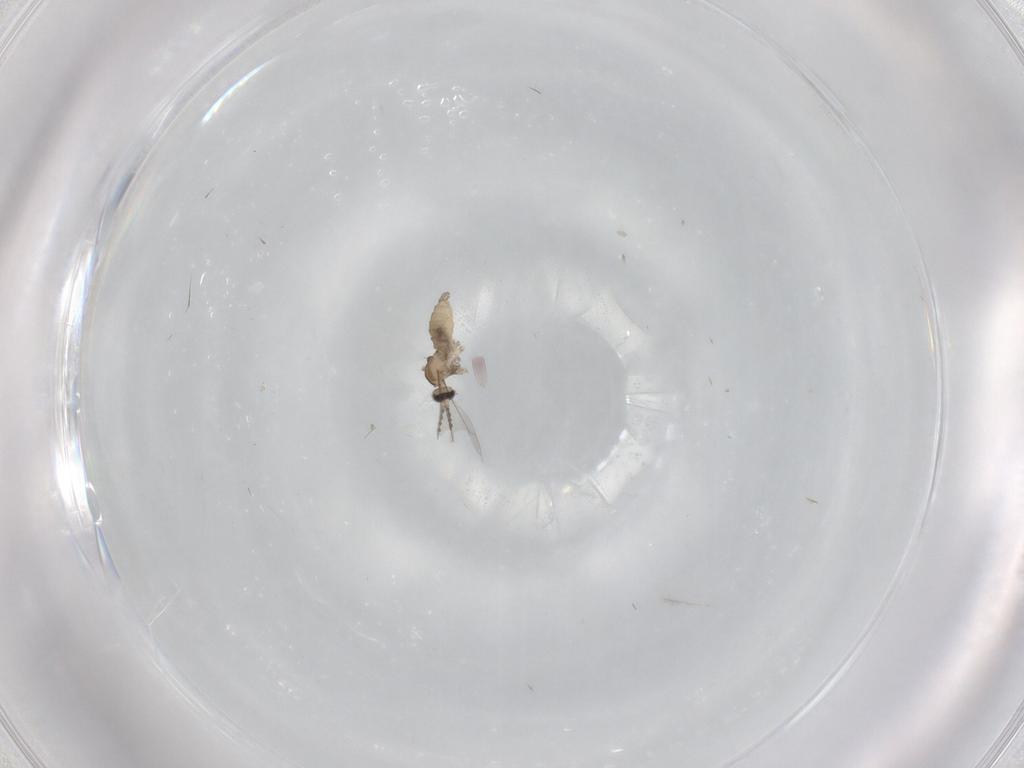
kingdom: Animalia
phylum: Arthropoda
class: Insecta
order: Diptera
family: Cecidomyiidae
